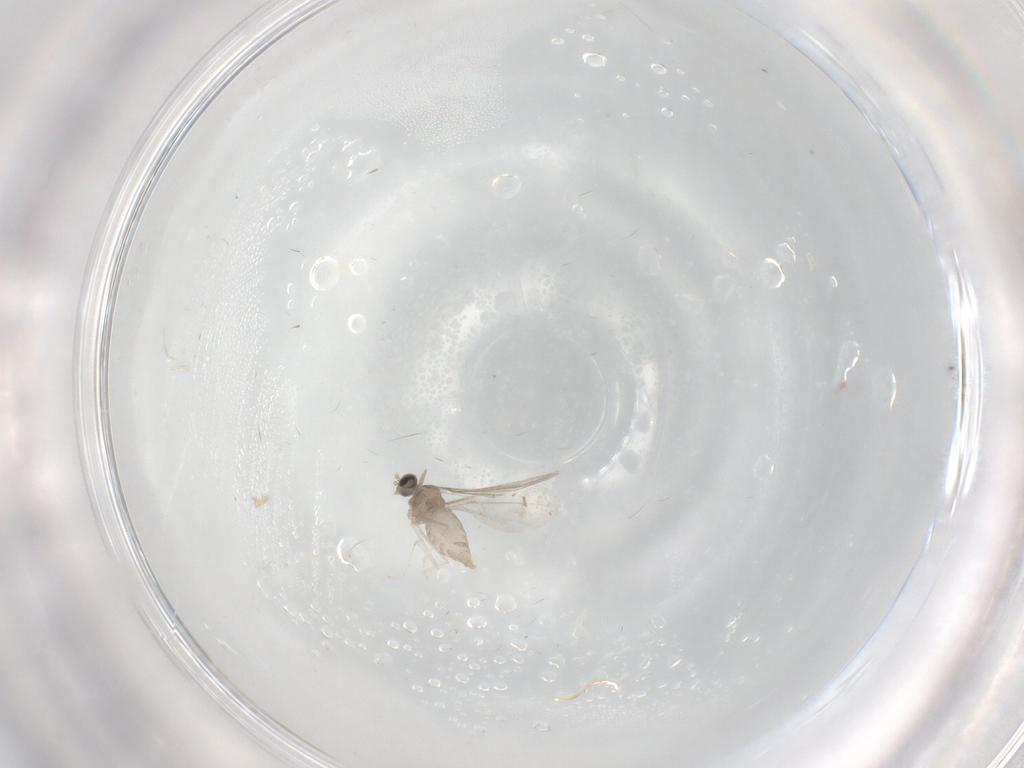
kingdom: Animalia
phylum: Arthropoda
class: Insecta
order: Diptera
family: Cecidomyiidae
